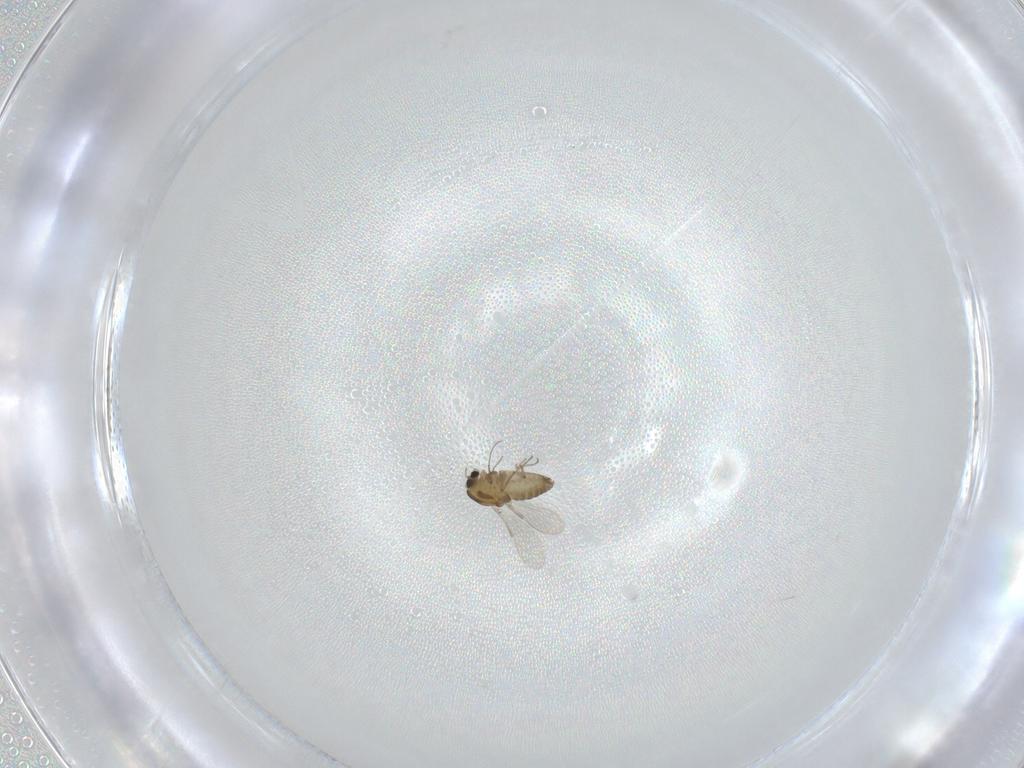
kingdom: Animalia
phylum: Arthropoda
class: Insecta
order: Diptera
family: Chironomidae
